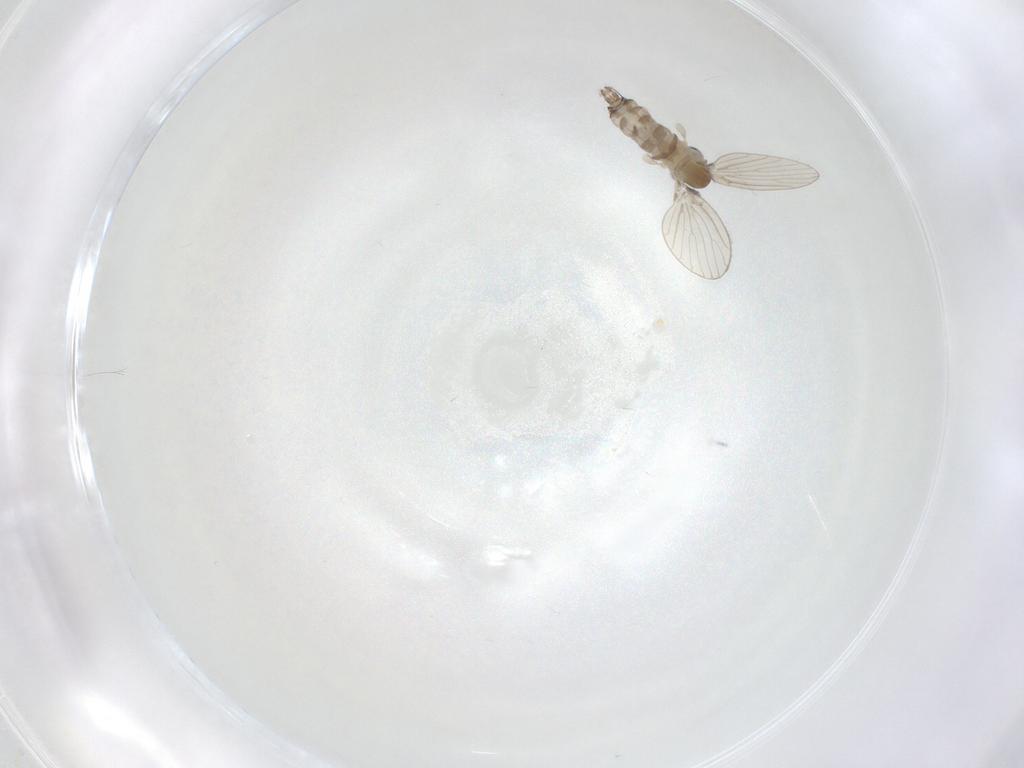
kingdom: Animalia
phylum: Arthropoda
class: Insecta
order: Diptera
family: Psychodidae
